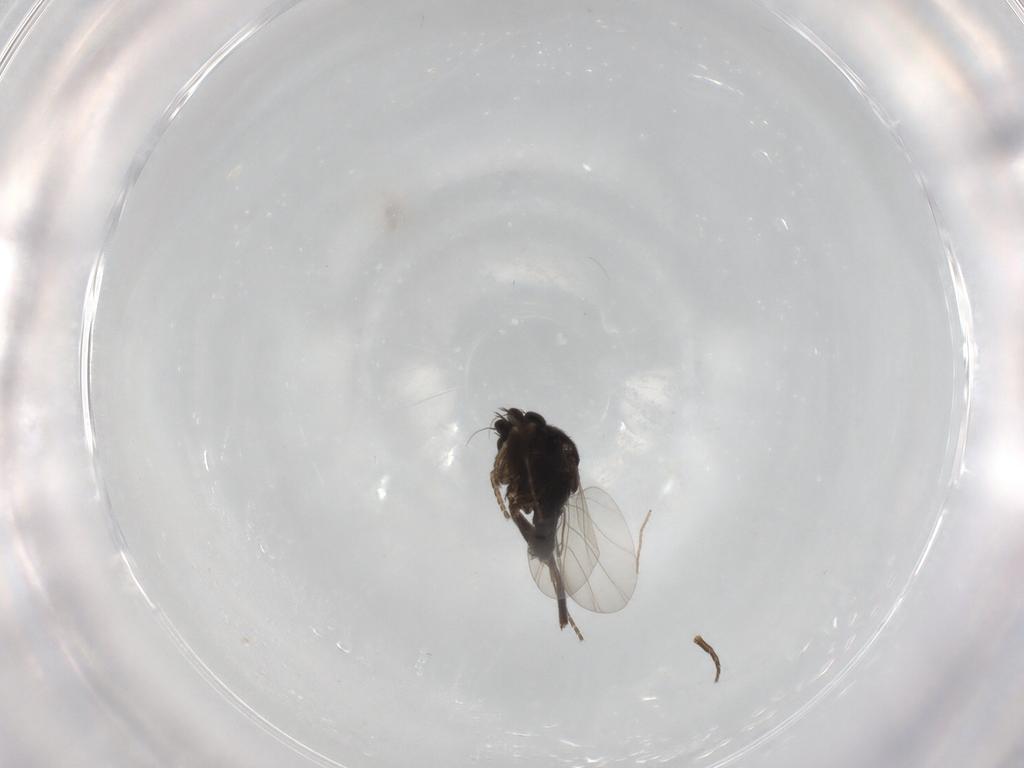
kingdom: Animalia
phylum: Arthropoda
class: Insecta
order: Diptera
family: Phoridae
